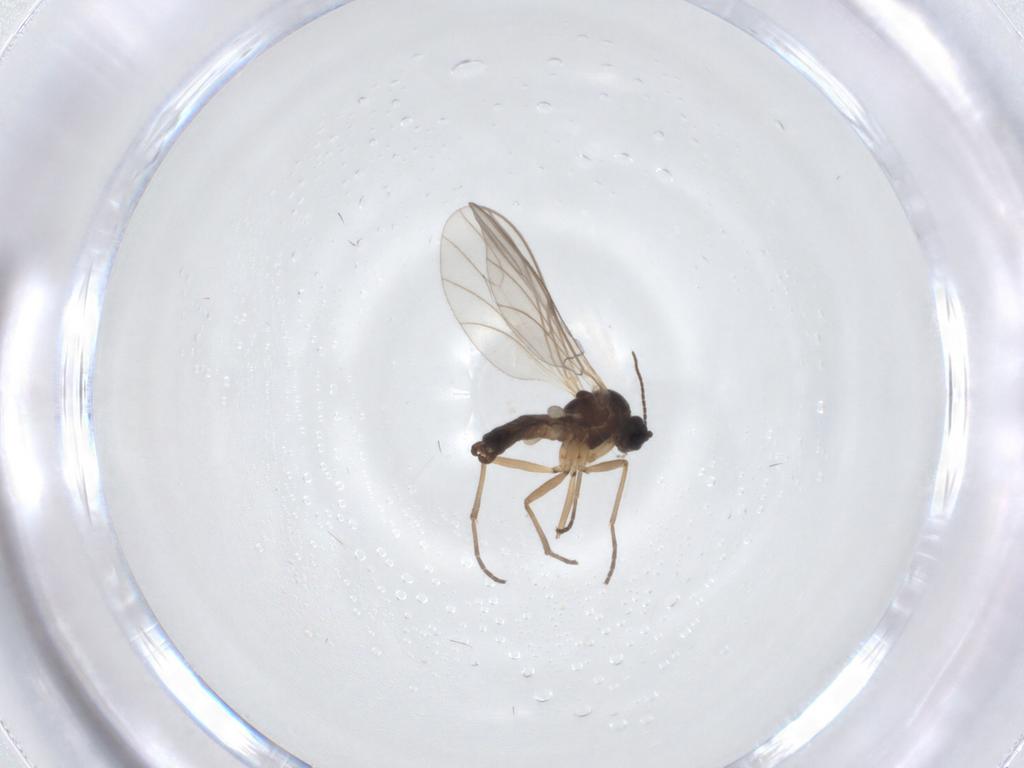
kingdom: Animalia
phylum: Arthropoda
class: Insecta
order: Diptera
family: Sciaridae
